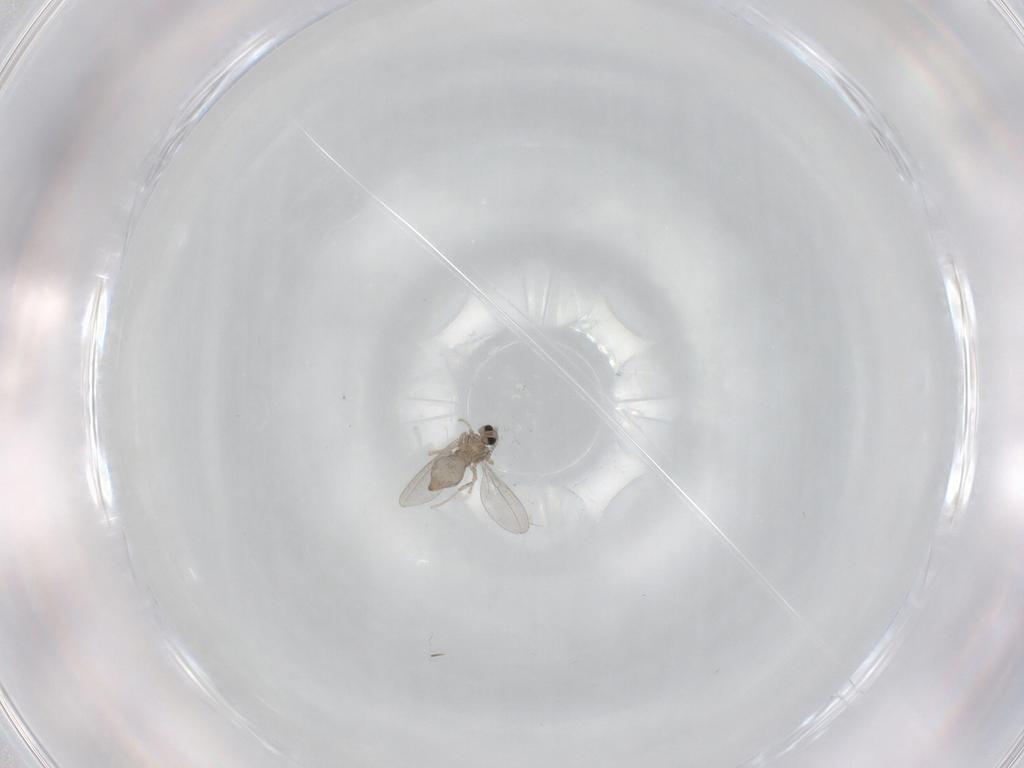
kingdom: Animalia
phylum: Arthropoda
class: Insecta
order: Diptera
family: Cecidomyiidae
